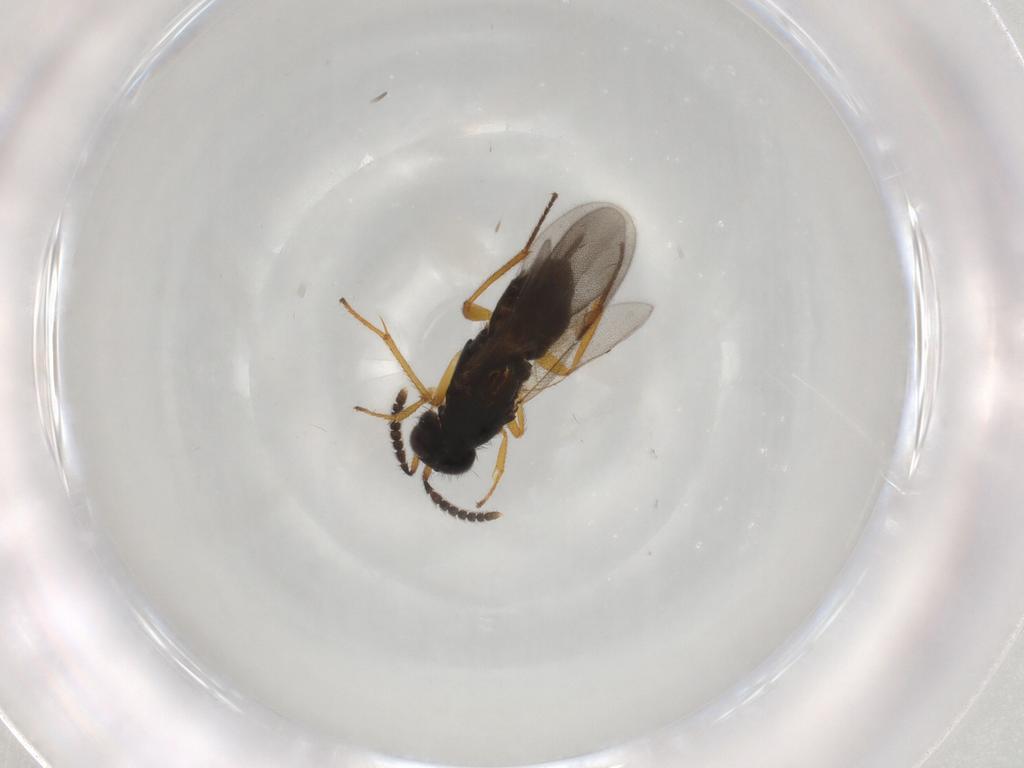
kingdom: Animalia
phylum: Arthropoda
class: Insecta
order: Hymenoptera
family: Encyrtidae
